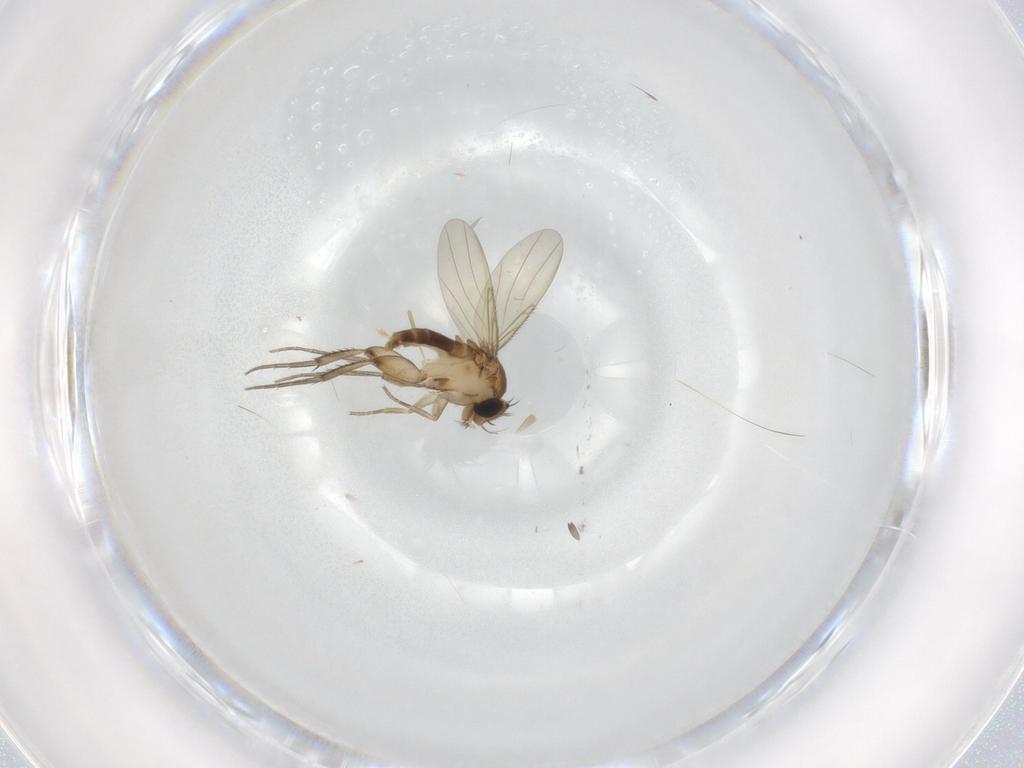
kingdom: Animalia
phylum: Arthropoda
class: Insecta
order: Diptera
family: Phoridae
